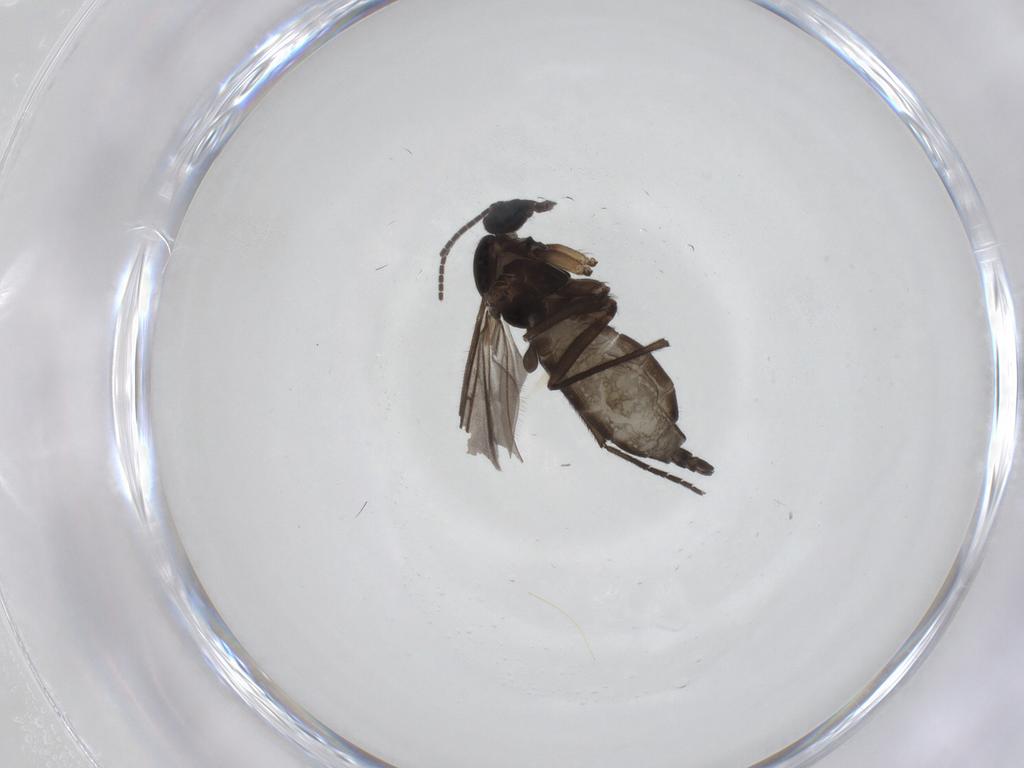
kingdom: Animalia
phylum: Arthropoda
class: Insecta
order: Diptera
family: Sciaridae
